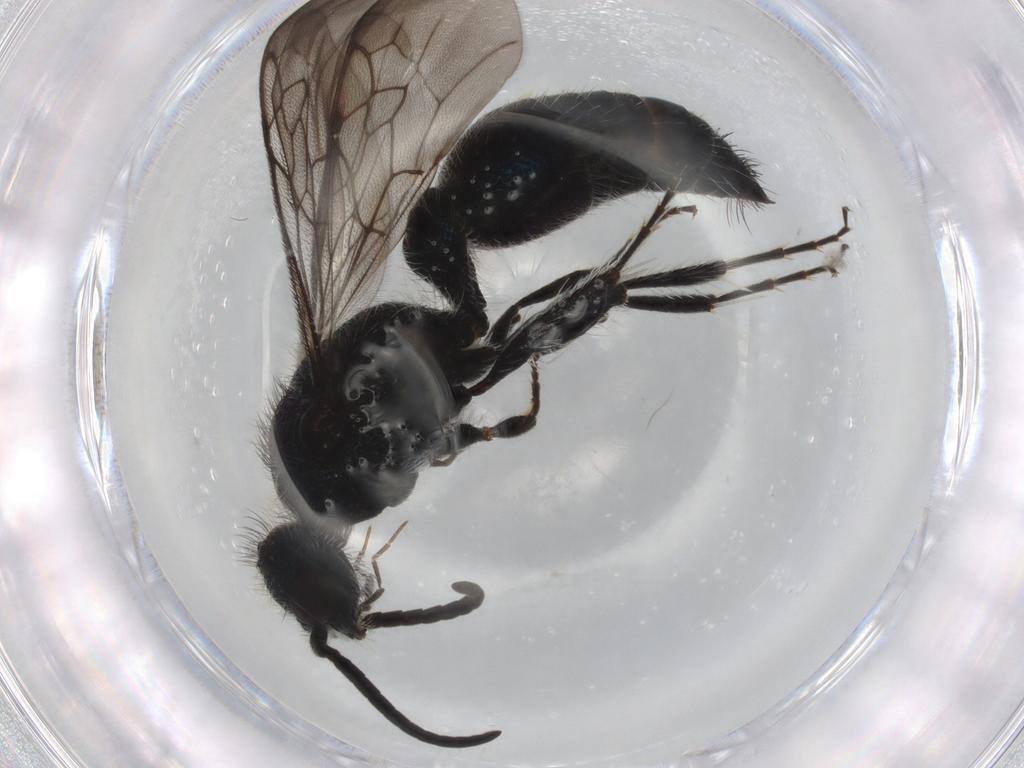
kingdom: Animalia
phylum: Arthropoda
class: Insecta
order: Hymenoptera
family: Mutillidae
